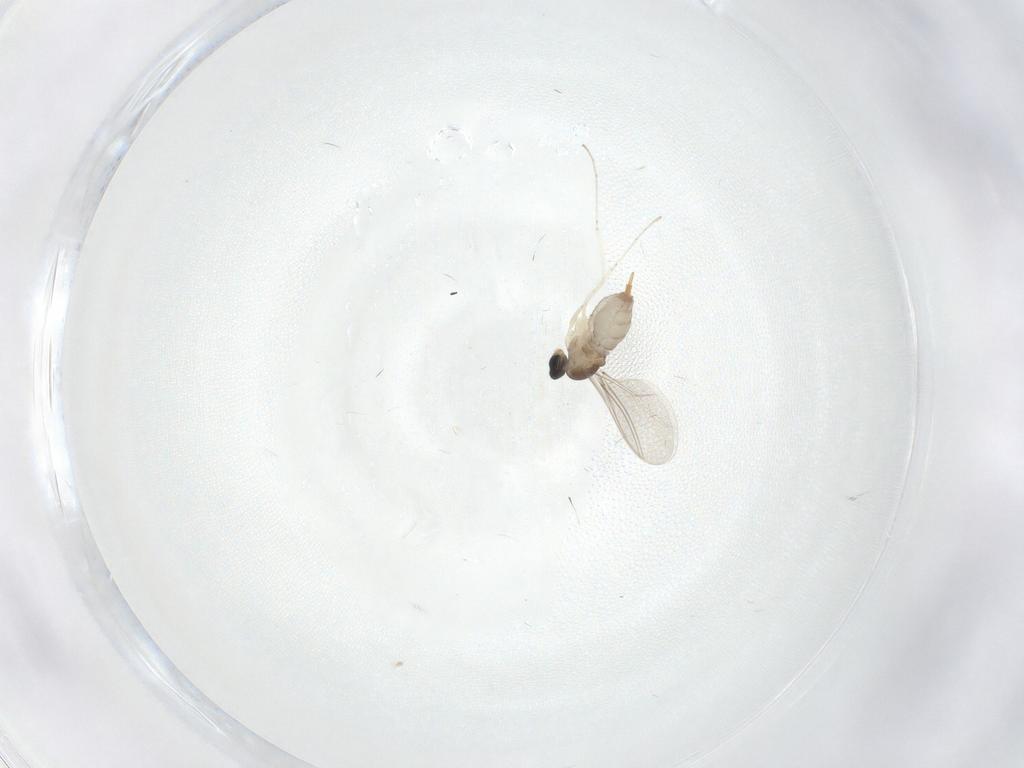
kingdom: Animalia
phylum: Arthropoda
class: Insecta
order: Diptera
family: Cecidomyiidae
